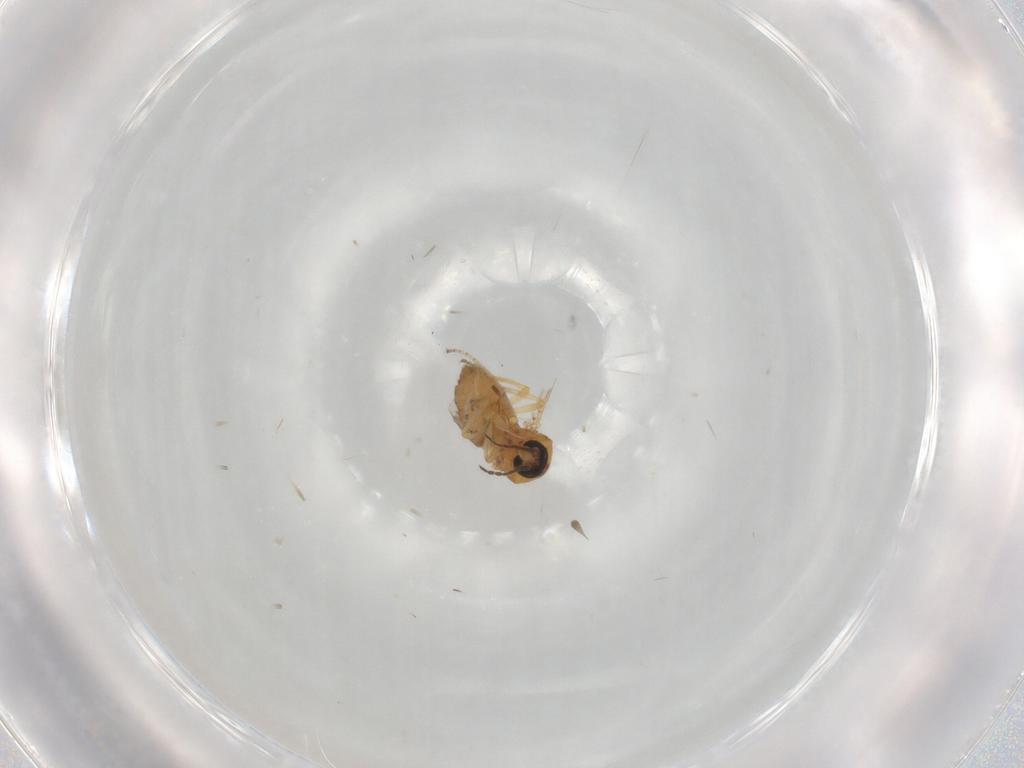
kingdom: Animalia
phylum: Arthropoda
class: Insecta
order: Diptera
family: Ceratopogonidae
